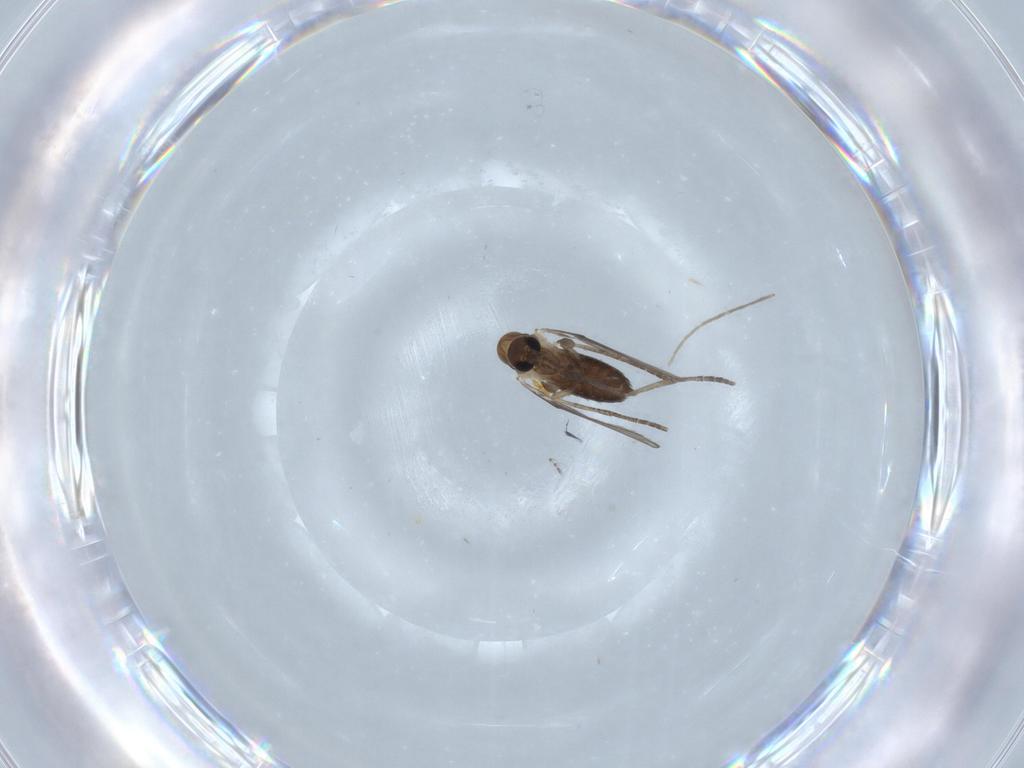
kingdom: Animalia
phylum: Arthropoda
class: Insecta
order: Diptera
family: Psychodidae
